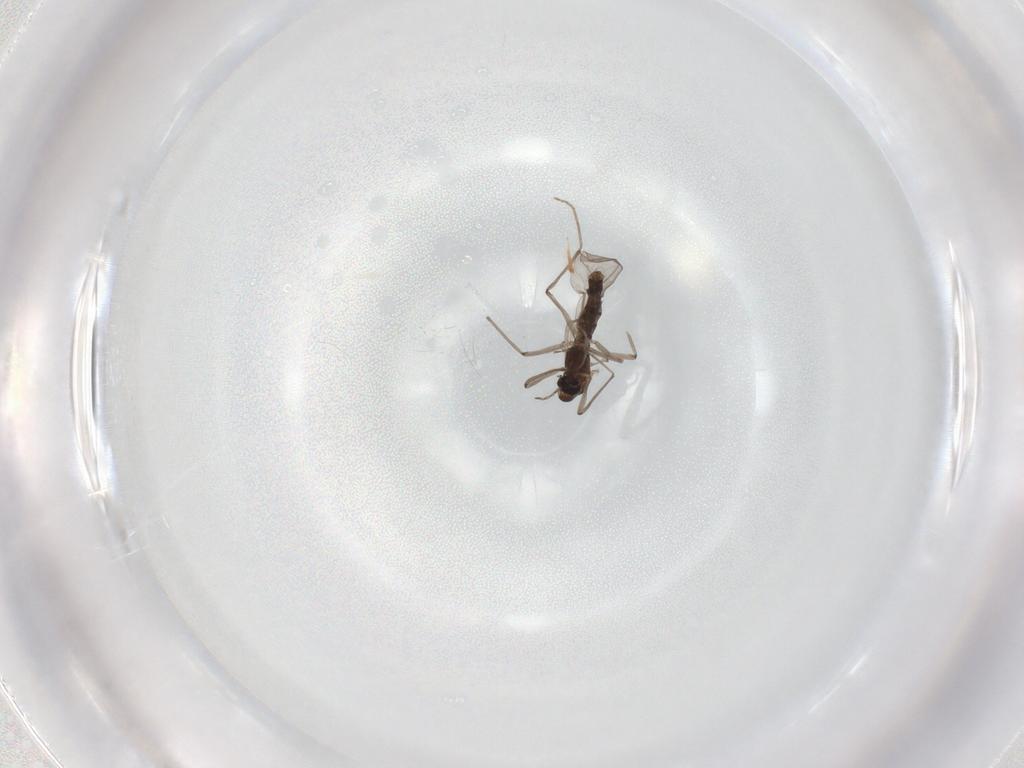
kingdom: Animalia
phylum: Arthropoda
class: Insecta
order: Diptera
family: Chironomidae
